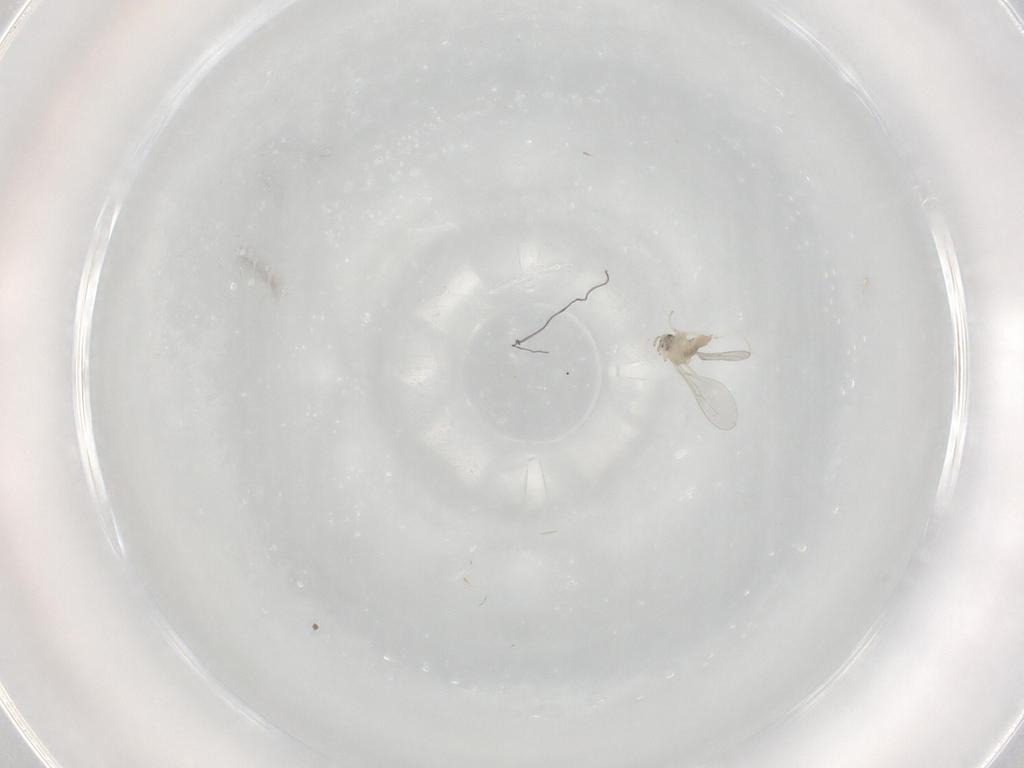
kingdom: Animalia
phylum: Arthropoda
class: Insecta
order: Diptera
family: Cecidomyiidae
